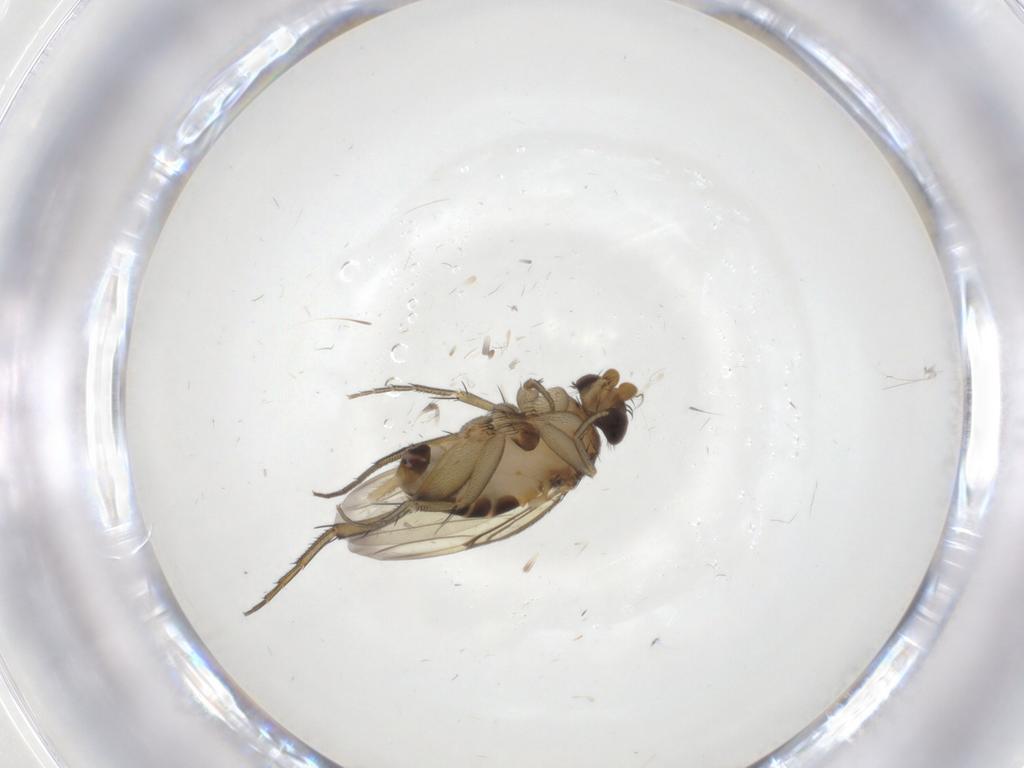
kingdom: Animalia
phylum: Arthropoda
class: Insecta
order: Diptera
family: Phoridae
